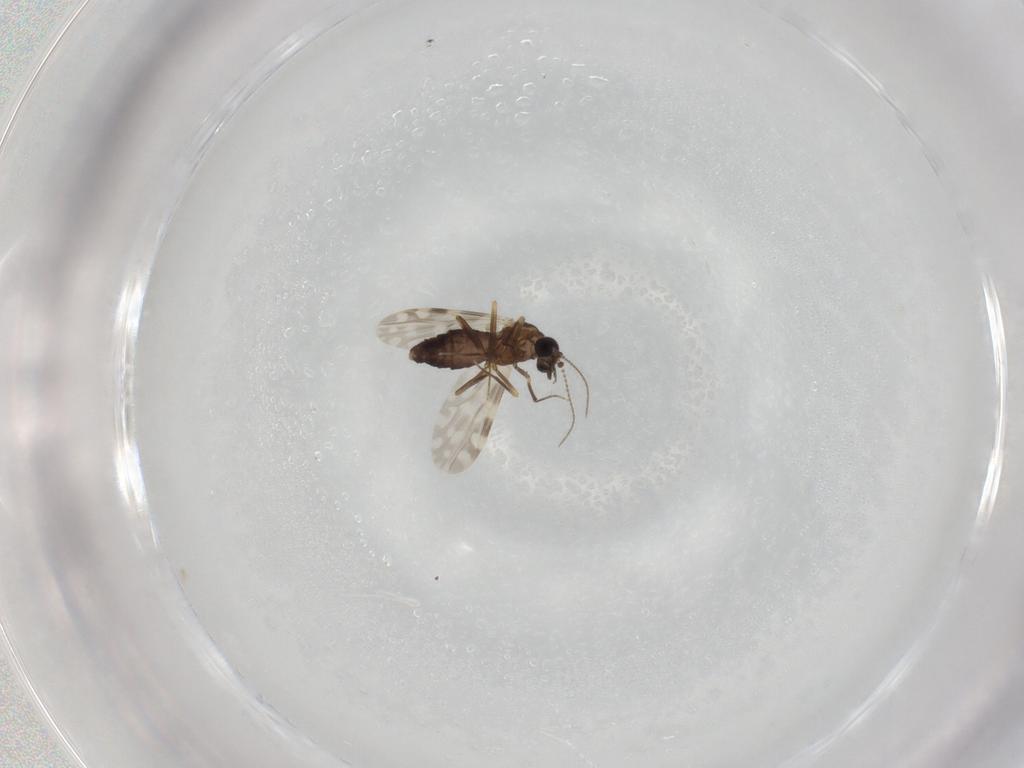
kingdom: Animalia
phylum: Arthropoda
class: Insecta
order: Diptera
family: Ceratopogonidae
